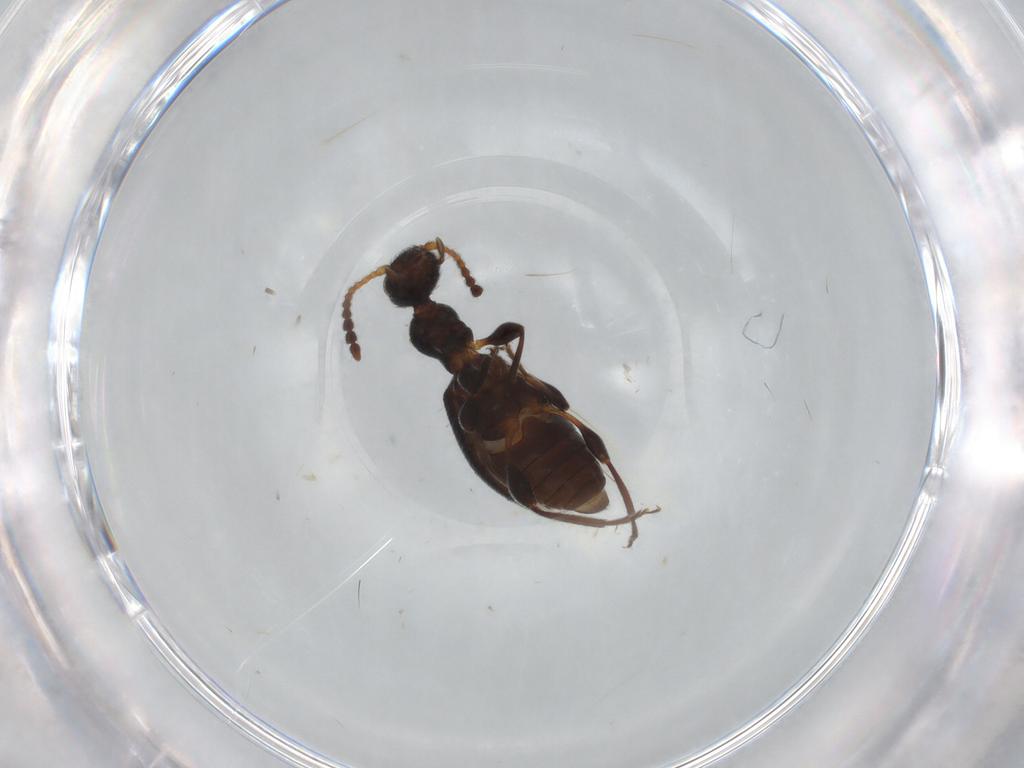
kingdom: Animalia
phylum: Arthropoda
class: Insecta
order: Coleoptera
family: Anthicidae
